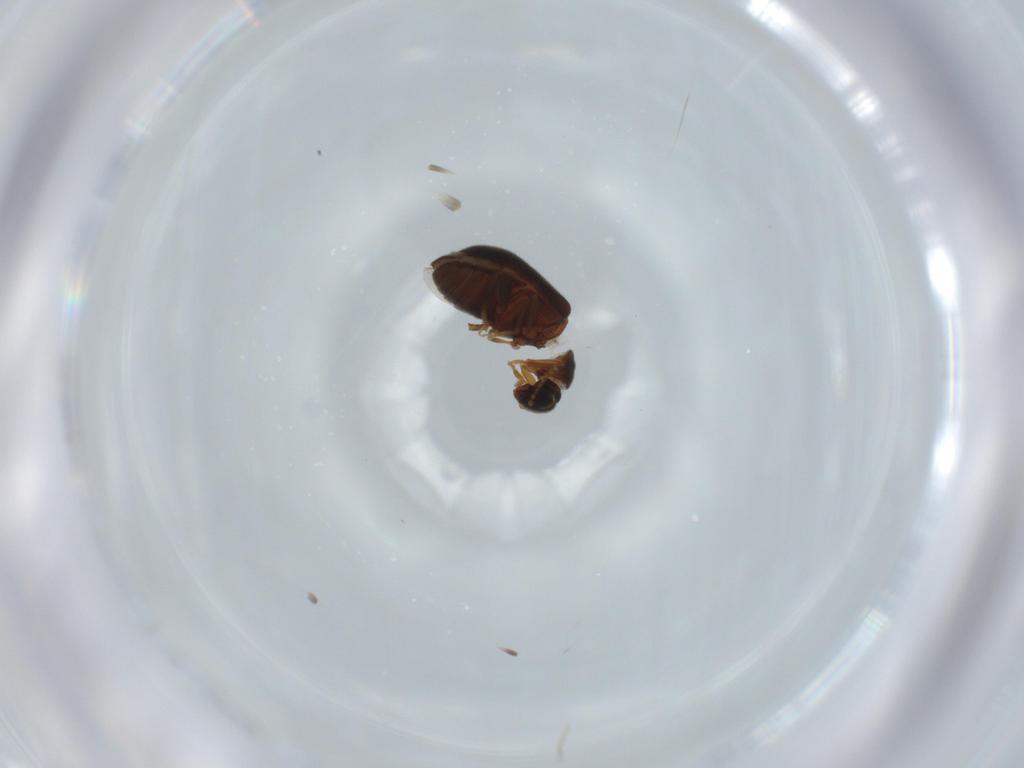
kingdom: Animalia
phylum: Arthropoda
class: Insecta
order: Coleoptera
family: Aderidae
